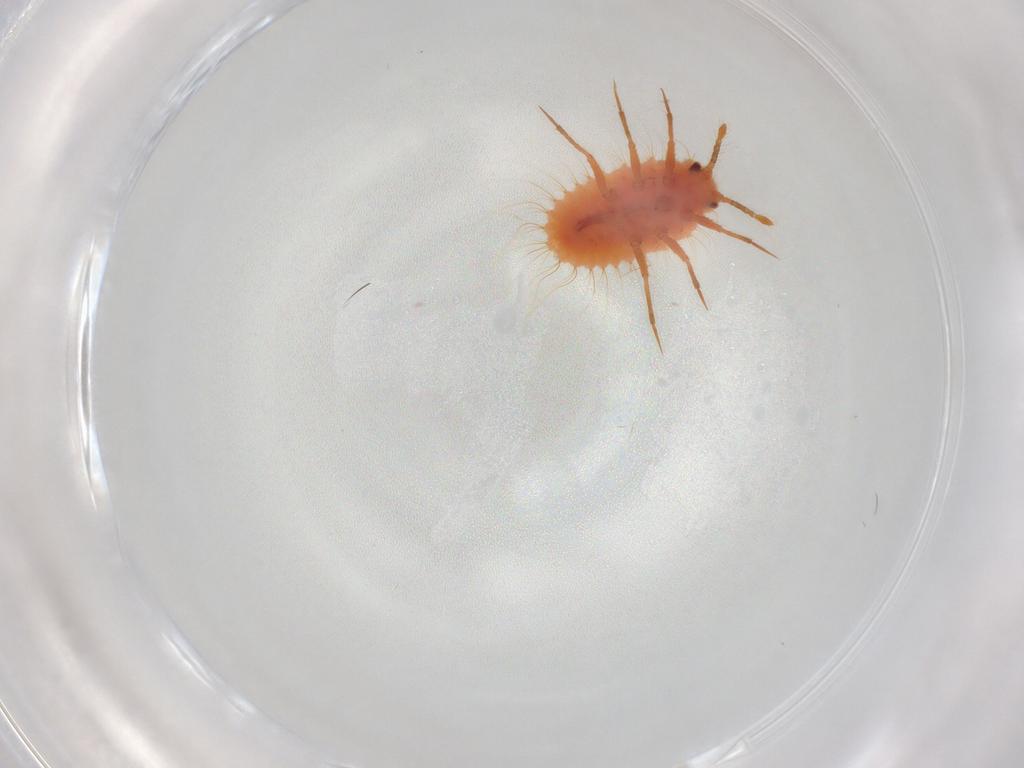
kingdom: Animalia
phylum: Arthropoda
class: Insecta
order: Hemiptera
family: Coccoidea_incertae_sedis
